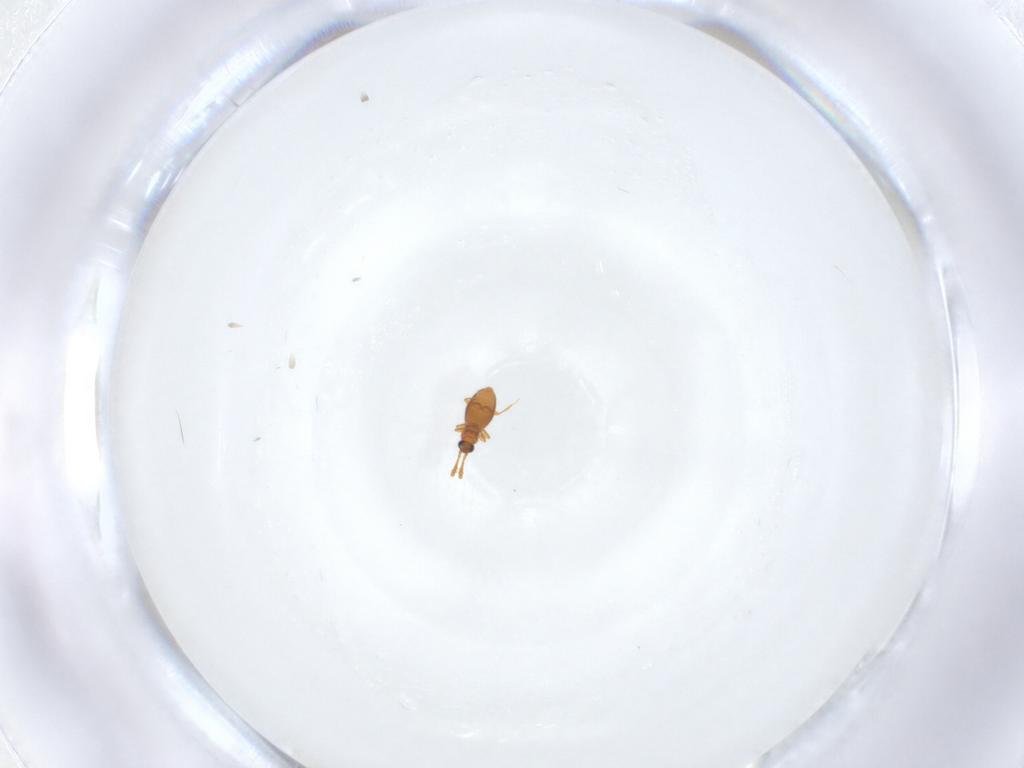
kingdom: Animalia
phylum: Arthropoda
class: Insecta
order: Coleoptera
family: Staphylinidae
